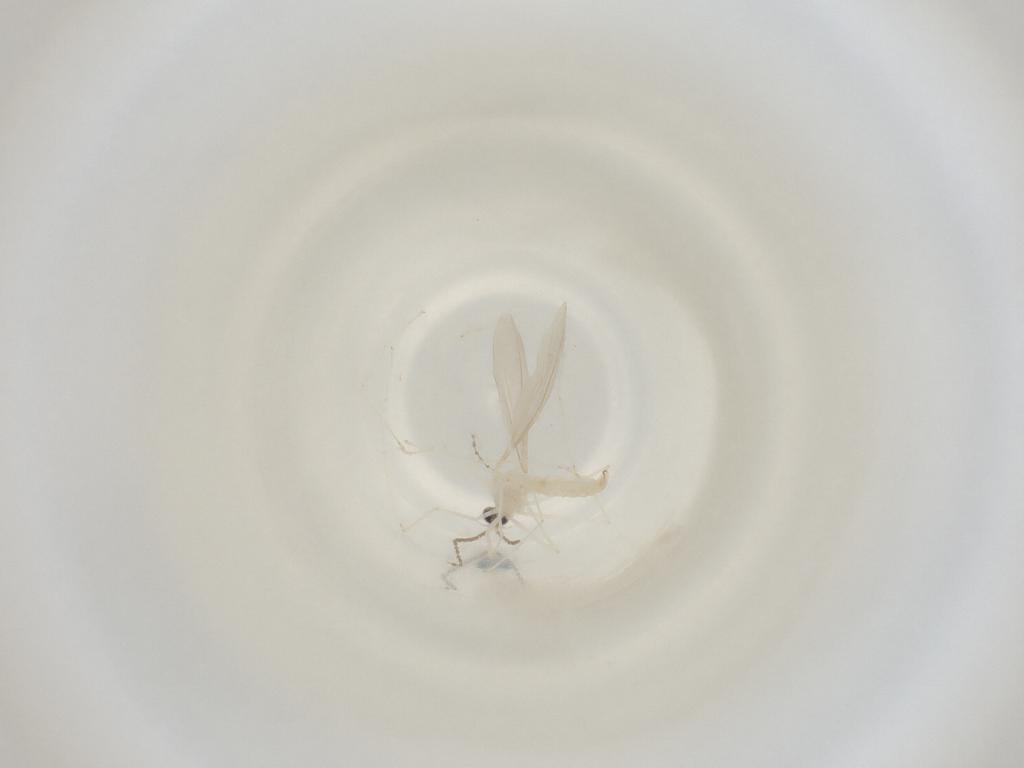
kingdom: Animalia
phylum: Arthropoda
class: Insecta
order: Diptera
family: Cecidomyiidae
